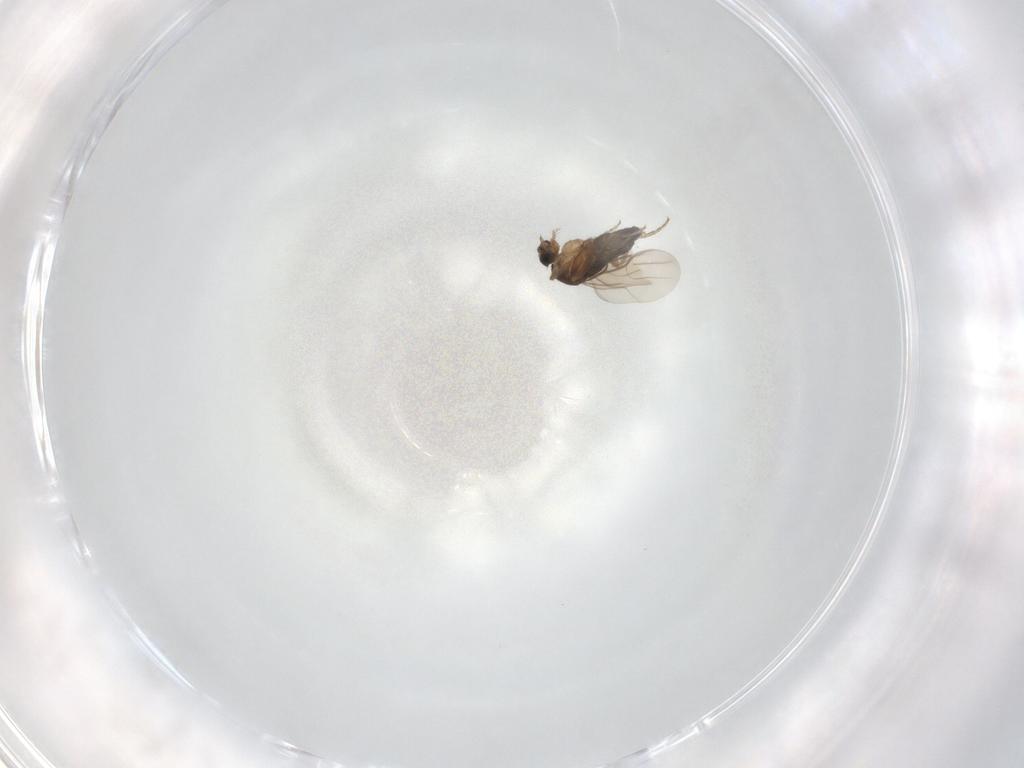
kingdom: Animalia
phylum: Arthropoda
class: Insecta
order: Diptera
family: Phoridae
